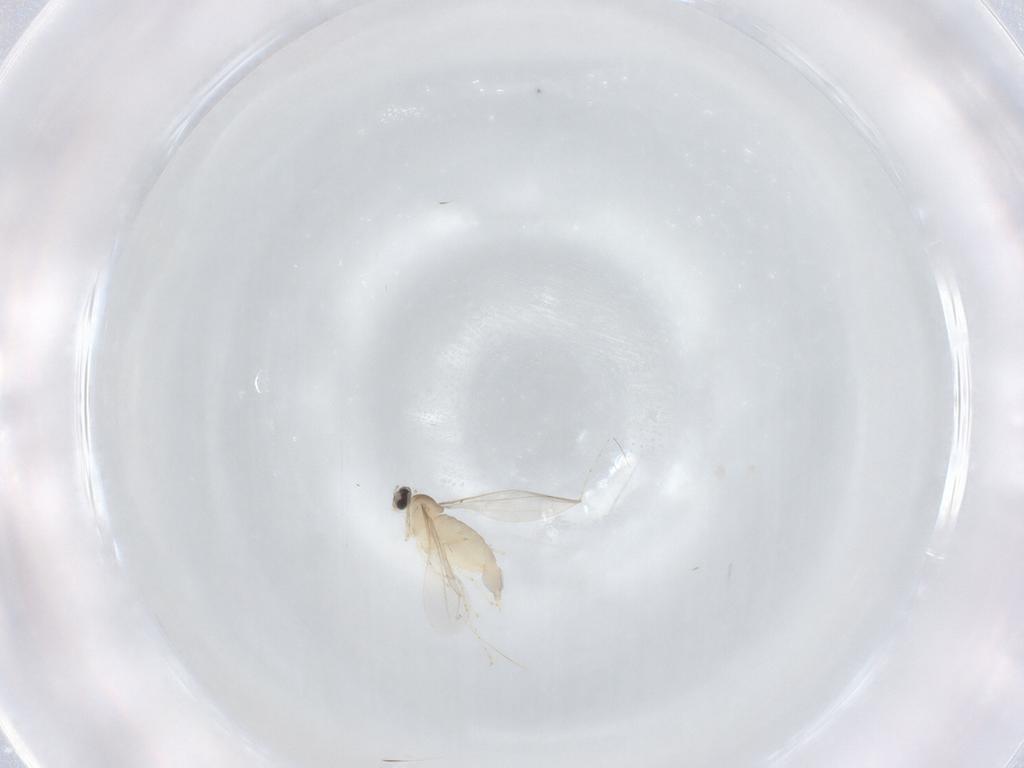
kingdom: Animalia
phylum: Arthropoda
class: Insecta
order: Diptera
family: Cecidomyiidae
